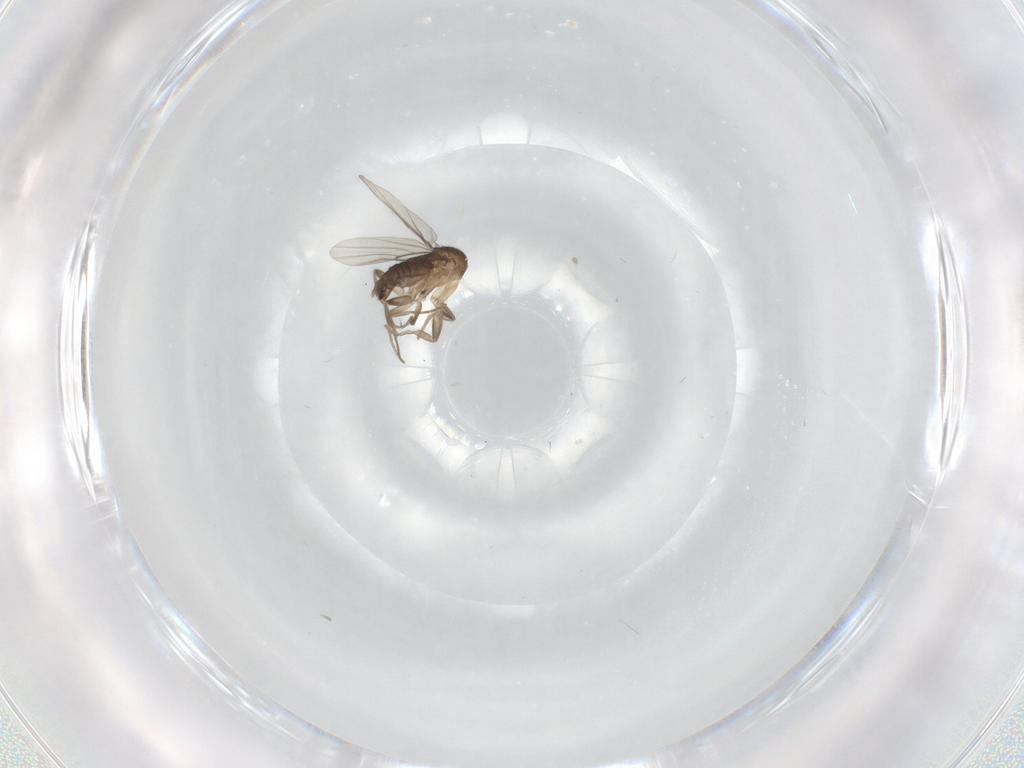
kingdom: Animalia
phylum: Arthropoda
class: Insecta
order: Diptera
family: Phoridae
